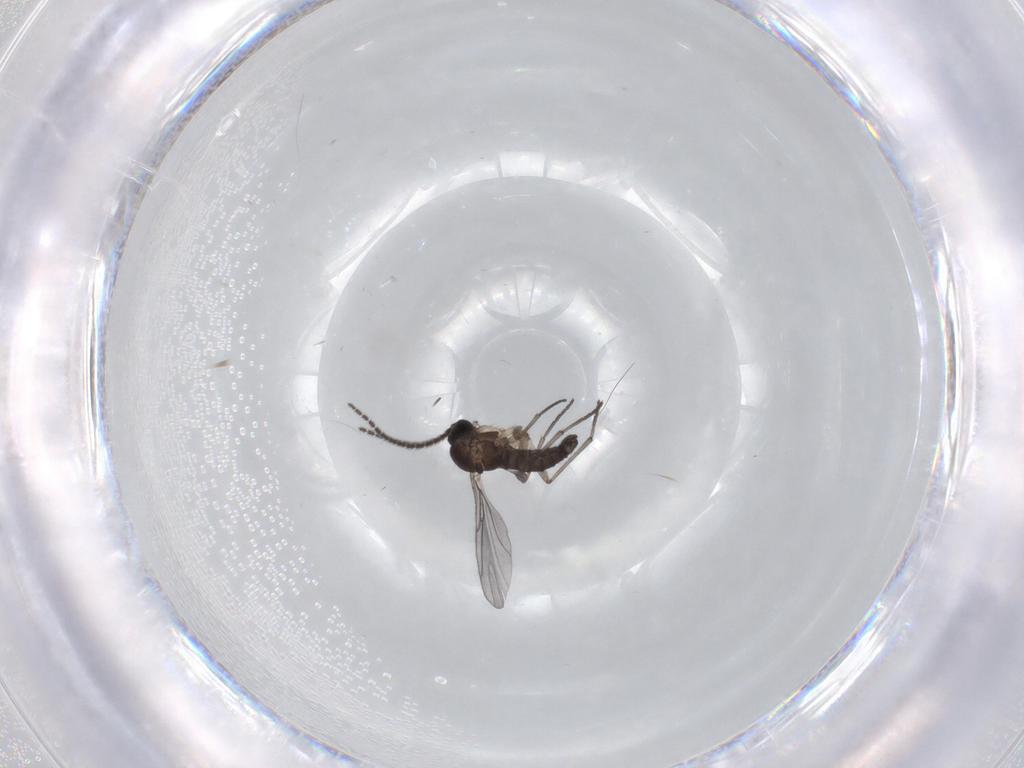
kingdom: Animalia
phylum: Arthropoda
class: Insecta
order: Diptera
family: Sciaridae
